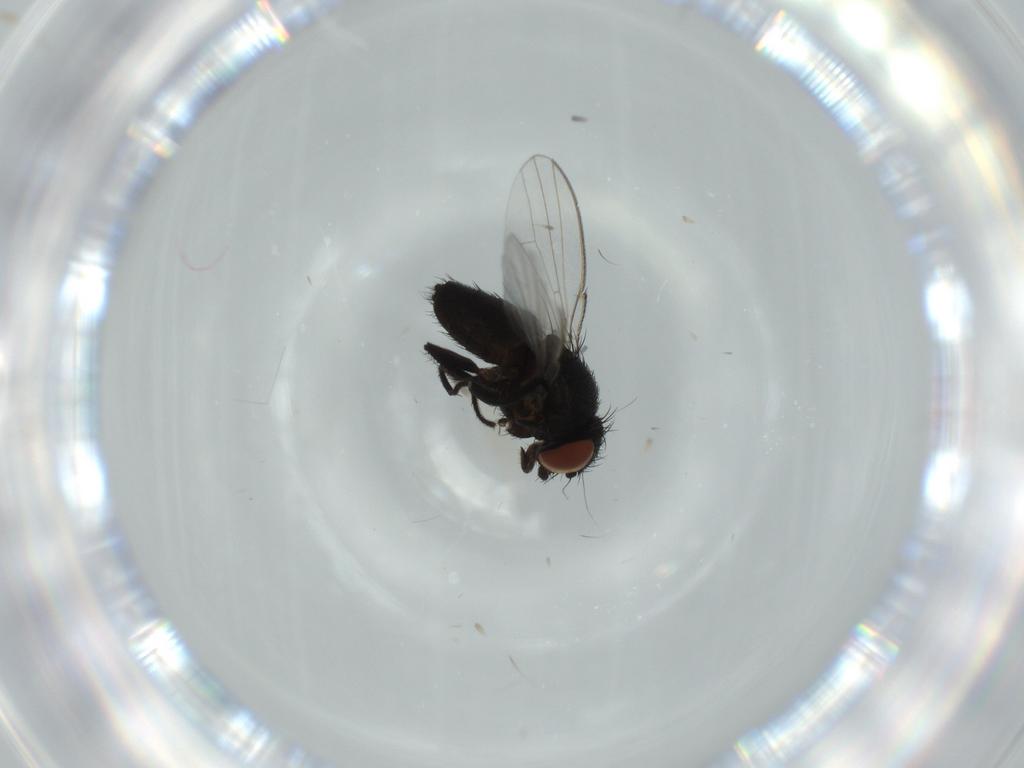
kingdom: Animalia
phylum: Arthropoda
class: Insecta
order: Diptera
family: Milichiidae
